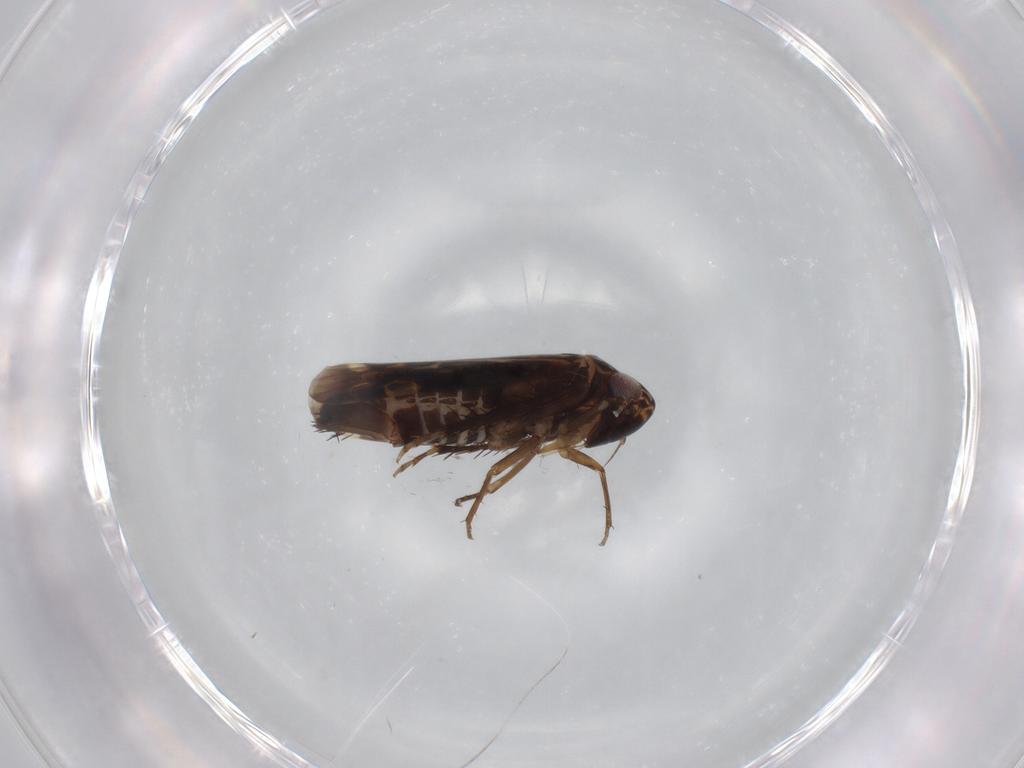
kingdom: Animalia
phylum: Arthropoda
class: Insecta
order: Hemiptera
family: Cicadellidae
